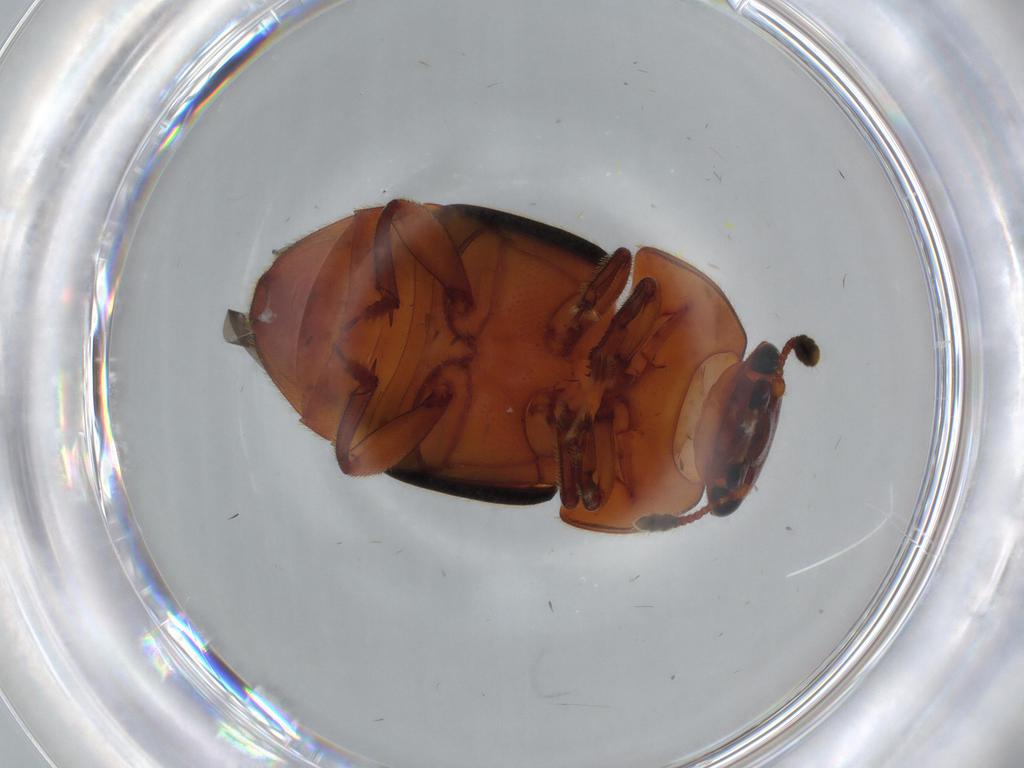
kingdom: Animalia
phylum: Arthropoda
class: Insecta
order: Coleoptera
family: Nitidulidae
